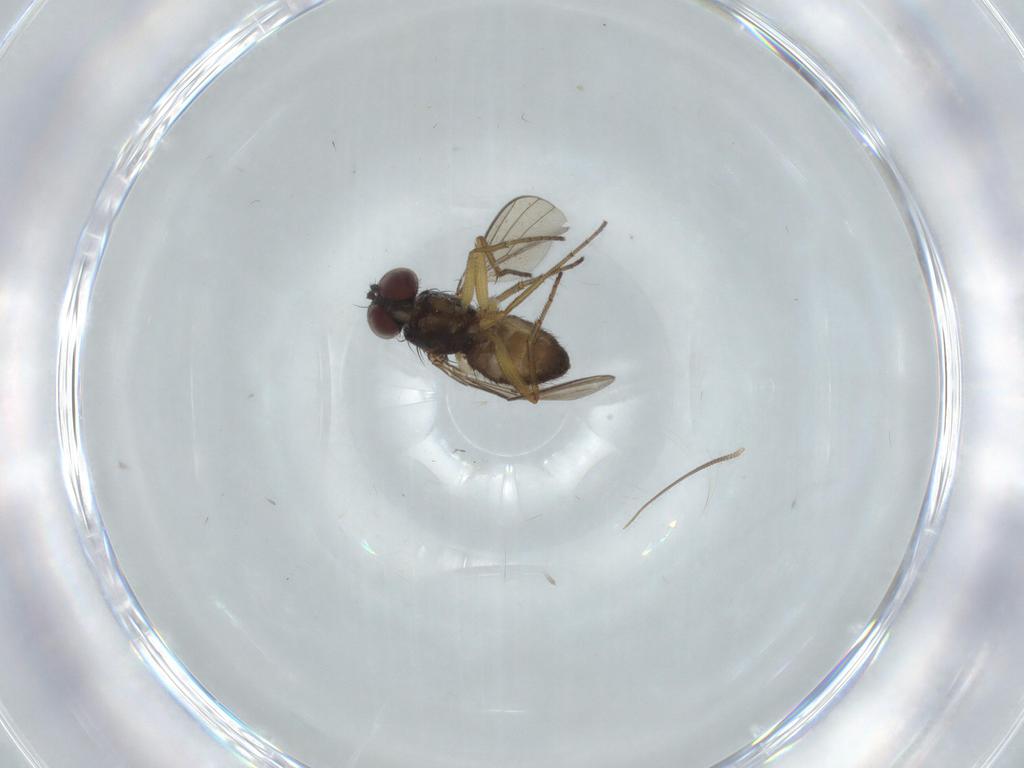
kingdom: Animalia
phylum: Arthropoda
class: Insecta
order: Diptera
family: Dolichopodidae
